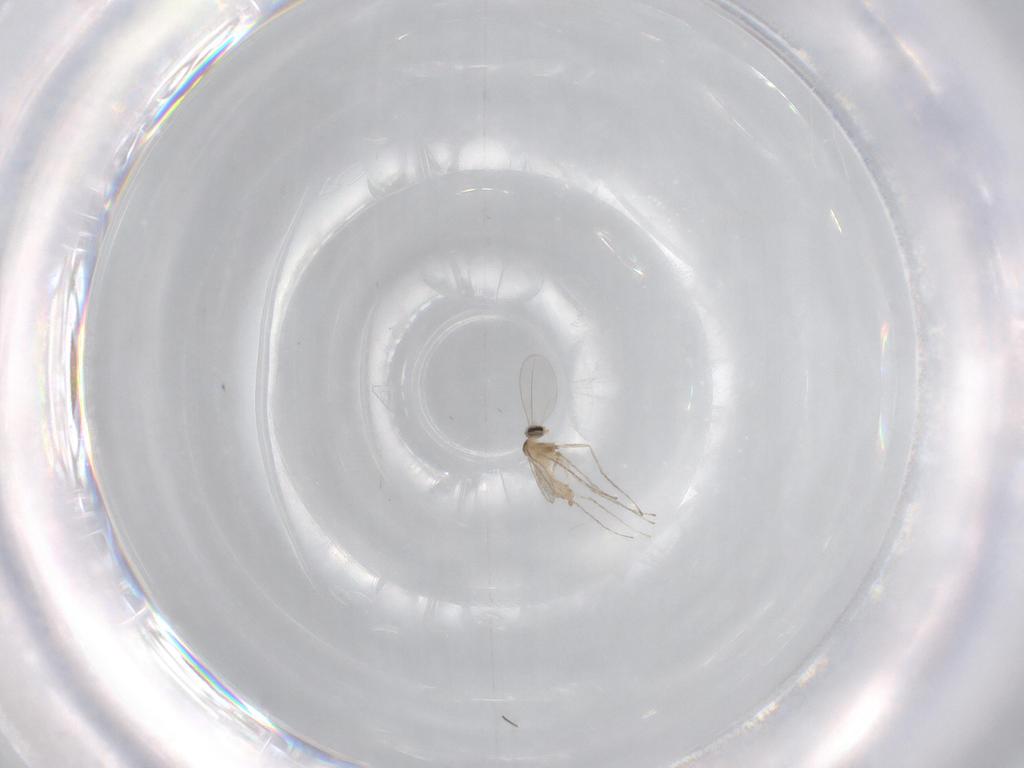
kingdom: Animalia
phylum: Arthropoda
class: Insecta
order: Diptera
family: Cecidomyiidae
